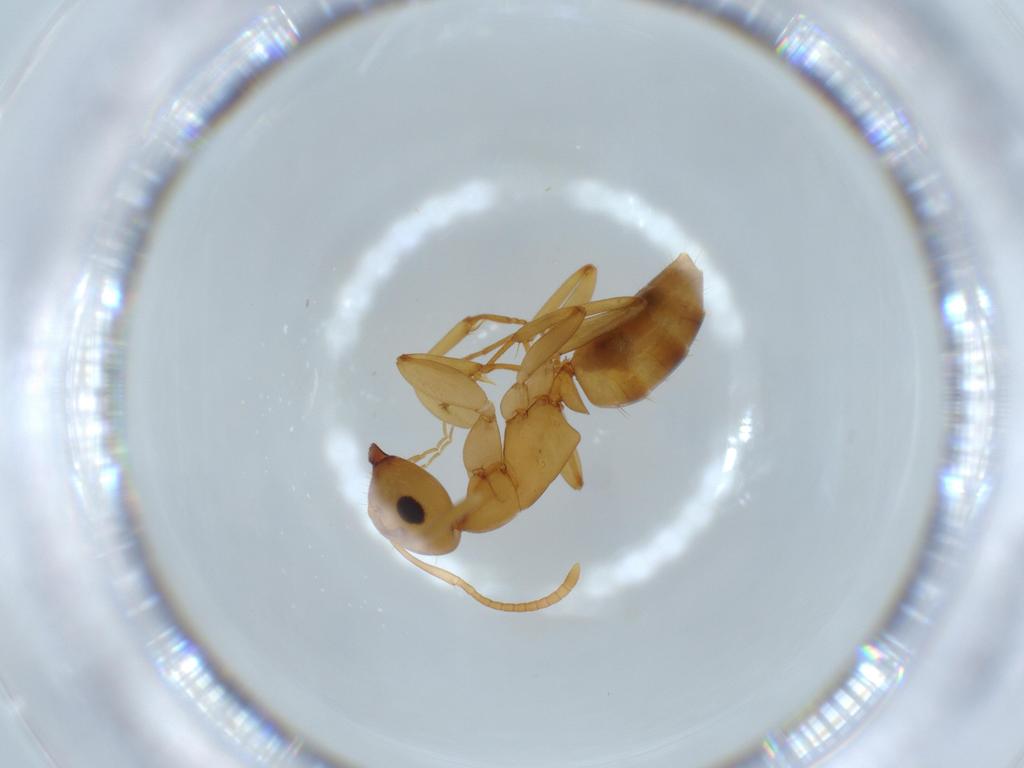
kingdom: Animalia
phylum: Arthropoda
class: Insecta
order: Hymenoptera
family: Formicidae
